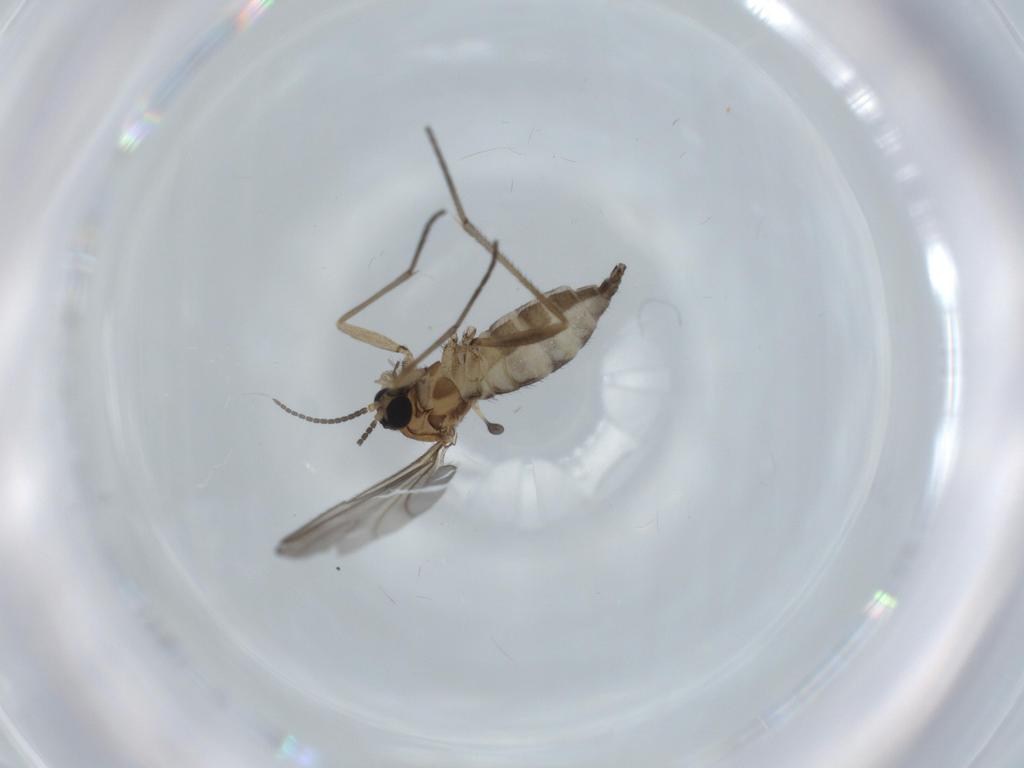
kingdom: Animalia
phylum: Arthropoda
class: Insecta
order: Diptera
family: Sciaridae
